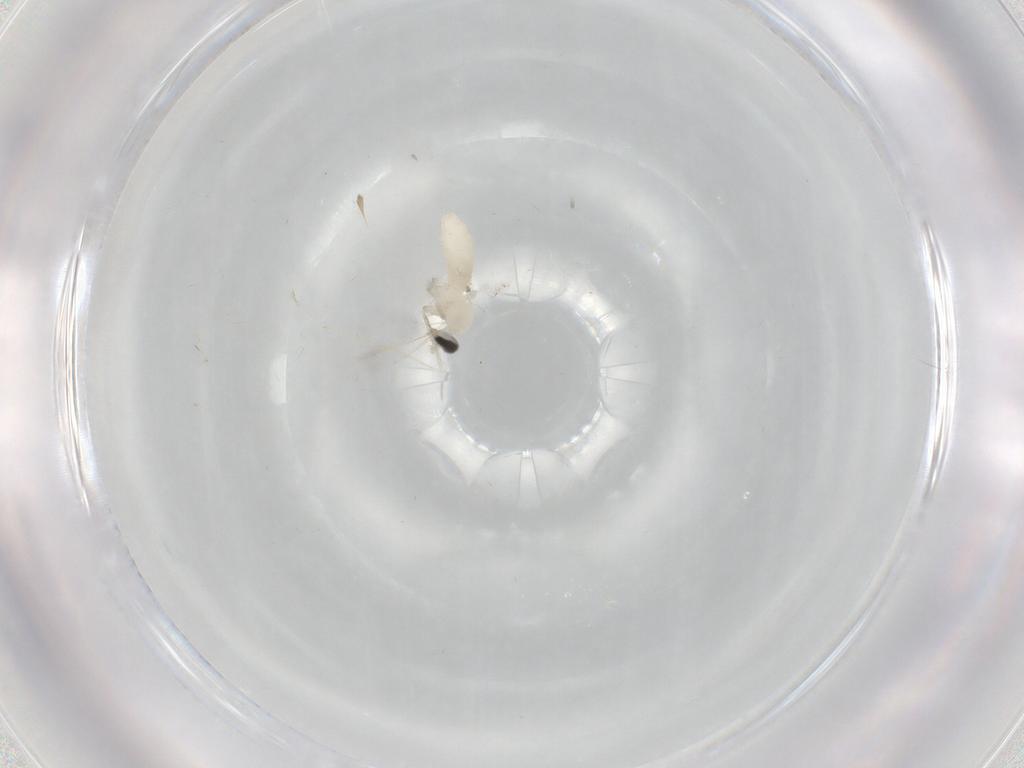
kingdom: Animalia
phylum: Arthropoda
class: Insecta
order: Diptera
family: Cecidomyiidae
